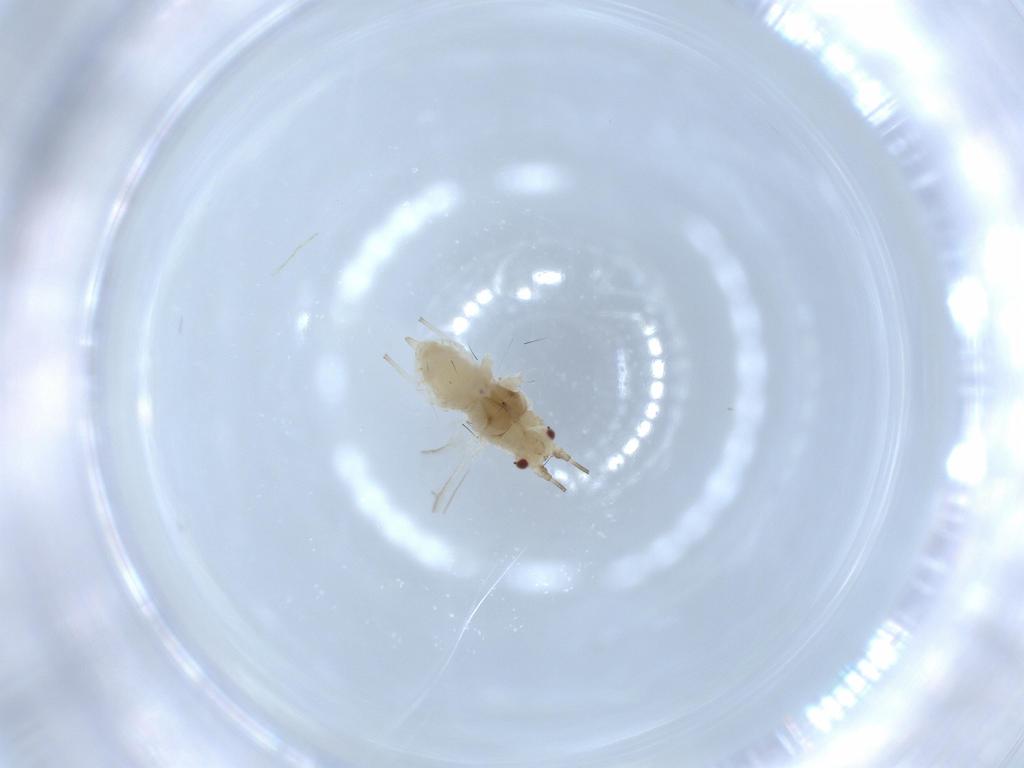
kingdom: Animalia
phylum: Arthropoda
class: Insecta
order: Hemiptera
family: Aphididae
